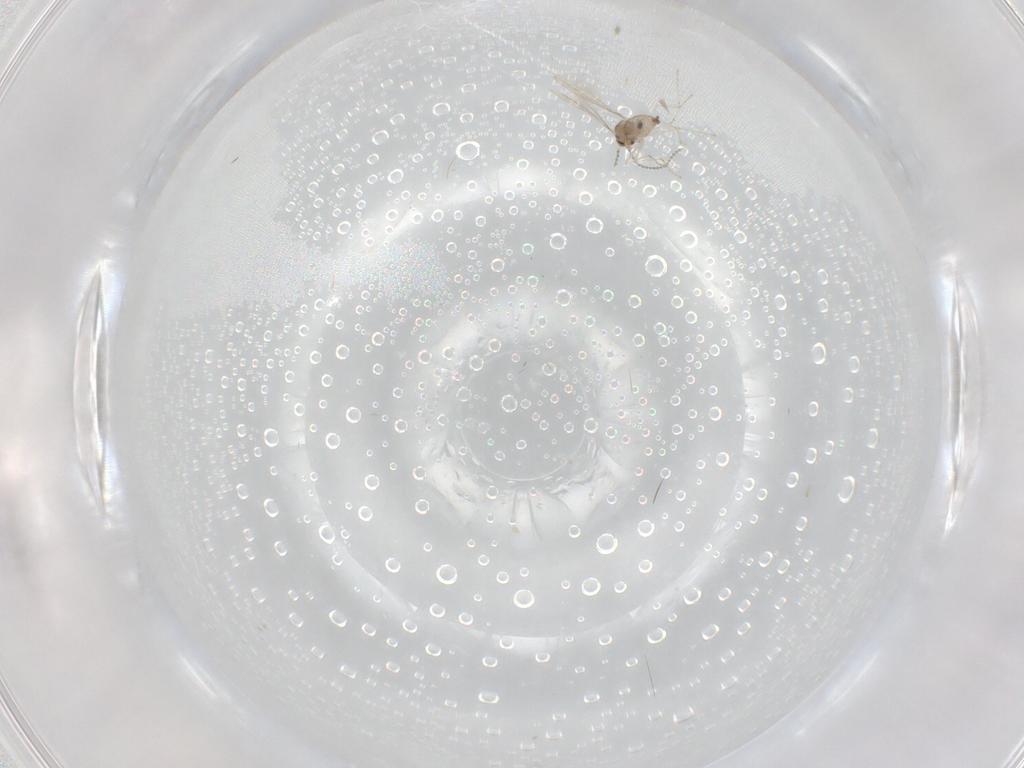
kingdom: Animalia
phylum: Arthropoda
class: Insecta
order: Diptera
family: Cecidomyiidae
